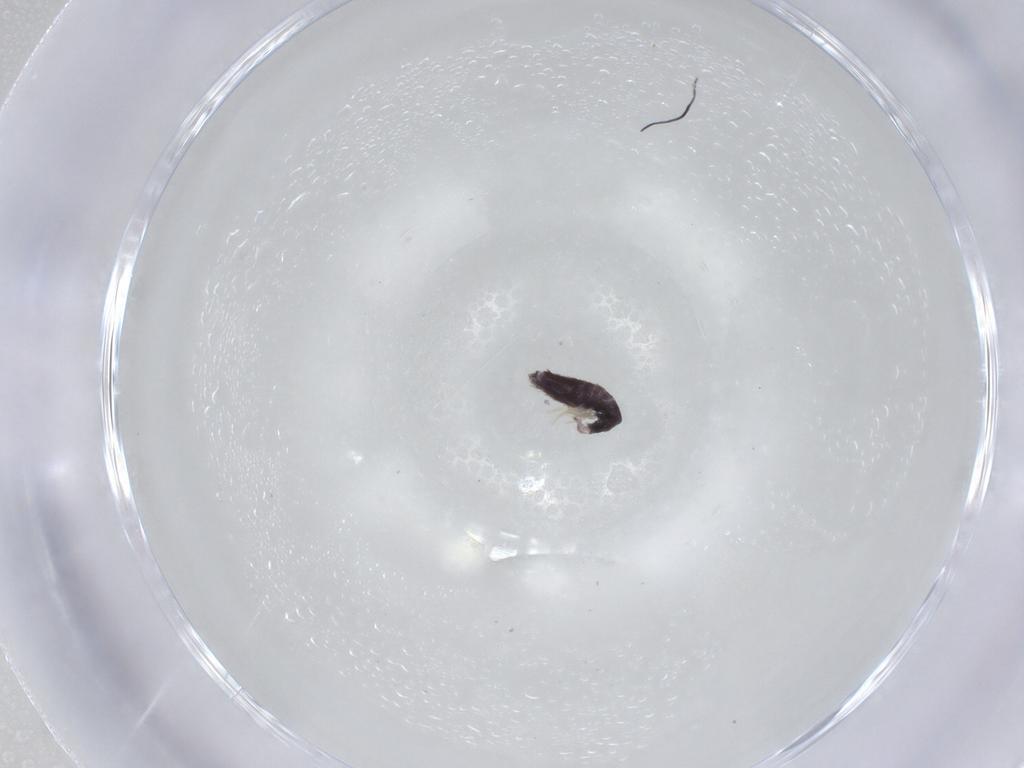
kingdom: Animalia
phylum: Arthropoda
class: Collembola
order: Entomobryomorpha
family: Entomobryidae
